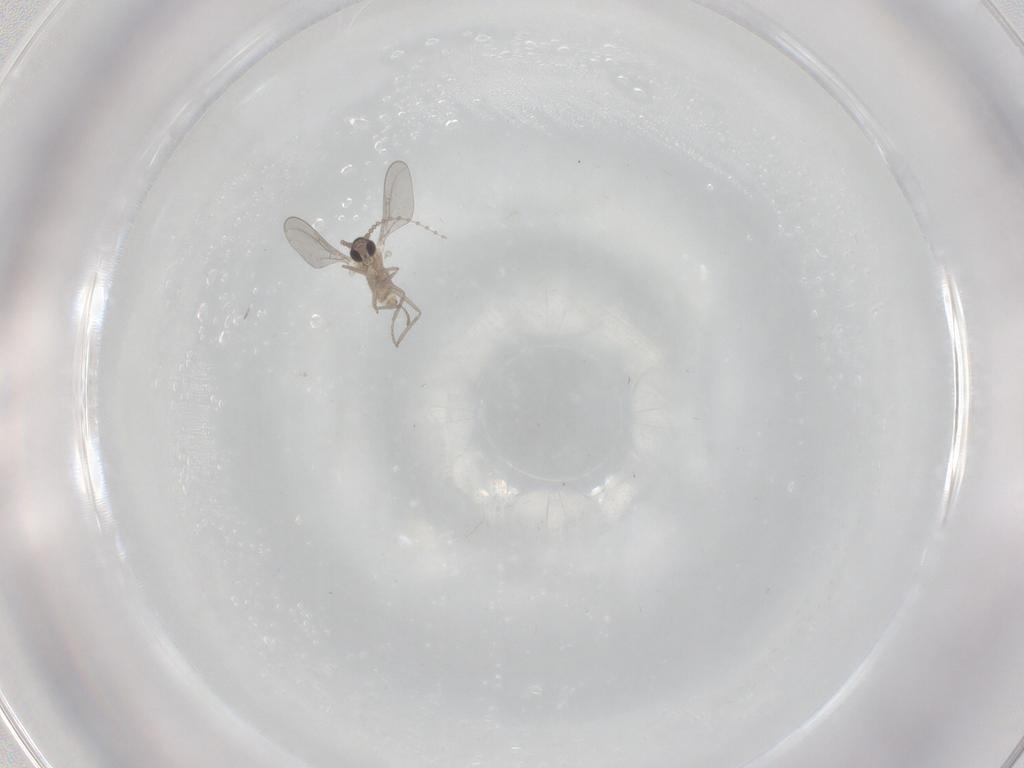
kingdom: Animalia
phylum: Arthropoda
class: Insecta
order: Diptera
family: Cecidomyiidae
